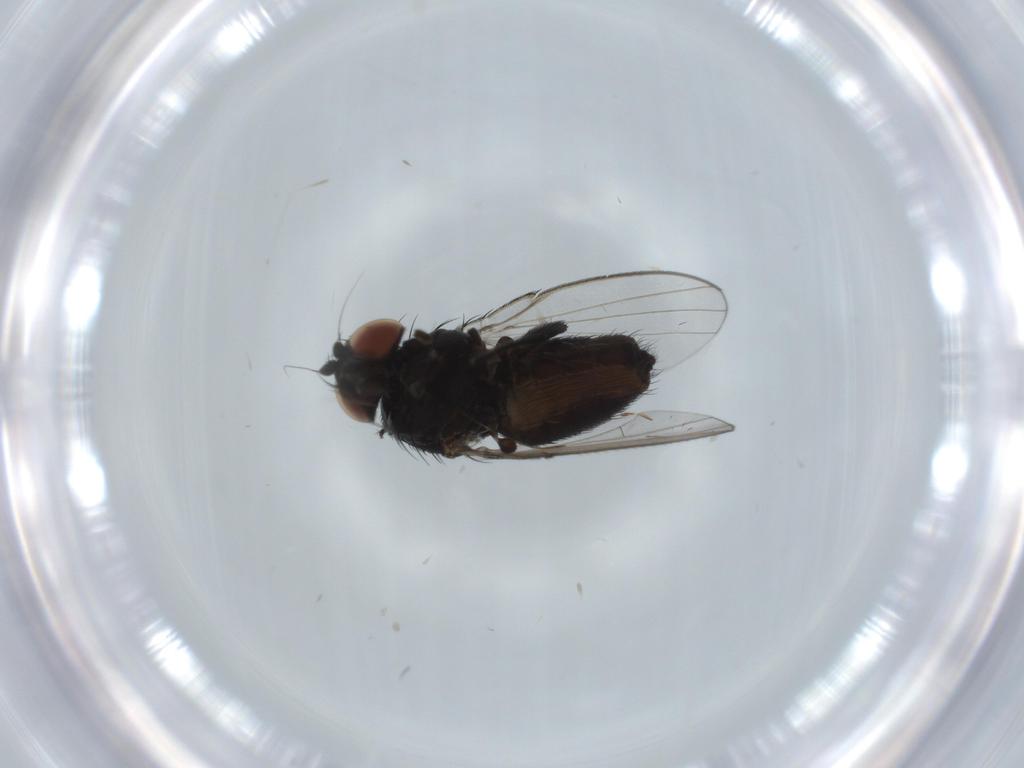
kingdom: Animalia
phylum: Arthropoda
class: Insecta
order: Diptera
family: Milichiidae
